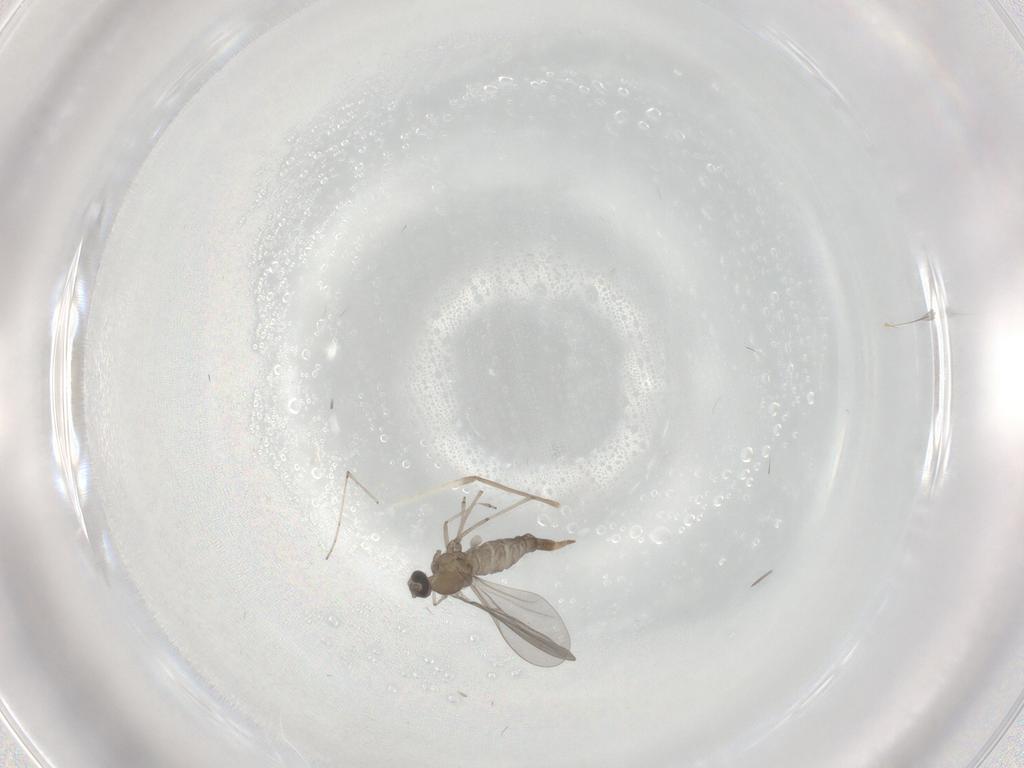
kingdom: Animalia
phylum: Arthropoda
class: Insecta
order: Diptera
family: Cecidomyiidae
